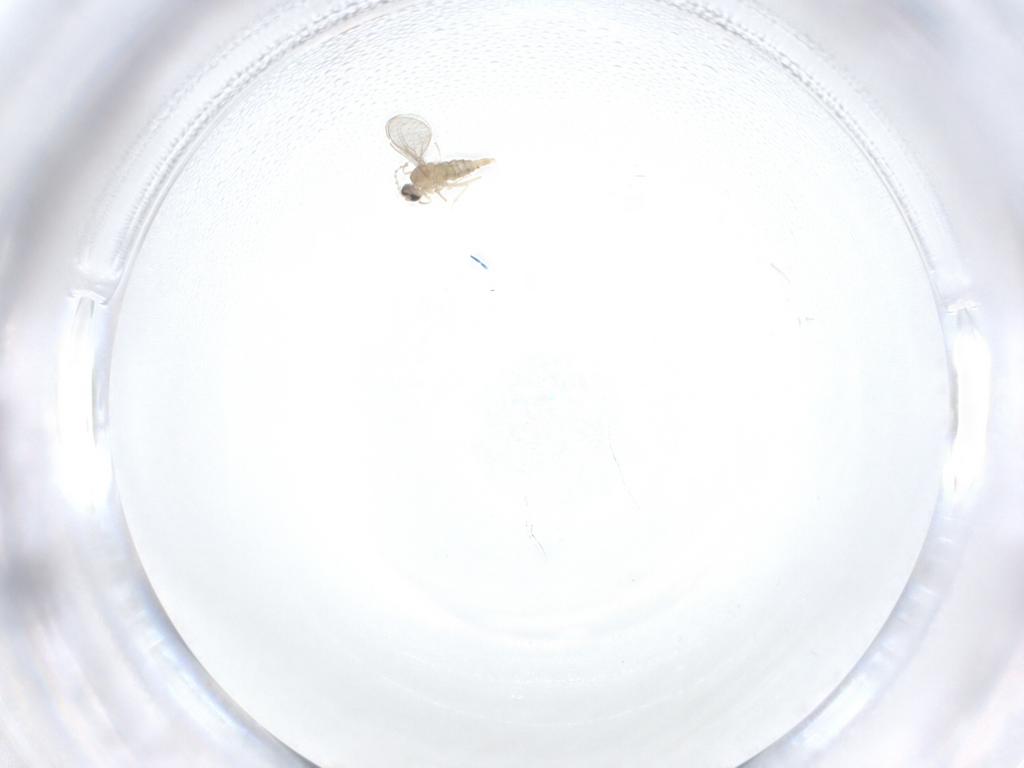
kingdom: Animalia
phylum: Arthropoda
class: Insecta
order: Diptera
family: Cecidomyiidae
